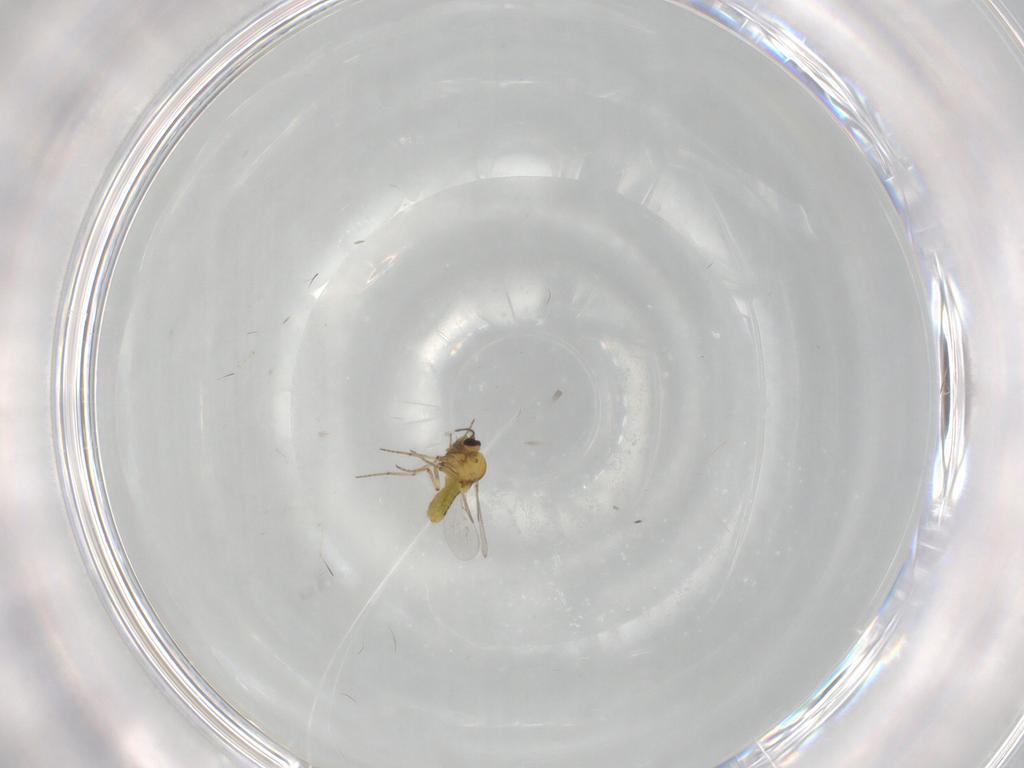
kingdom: Animalia
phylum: Arthropoda
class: Insecta
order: Diptera
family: Ceratopogonidae
